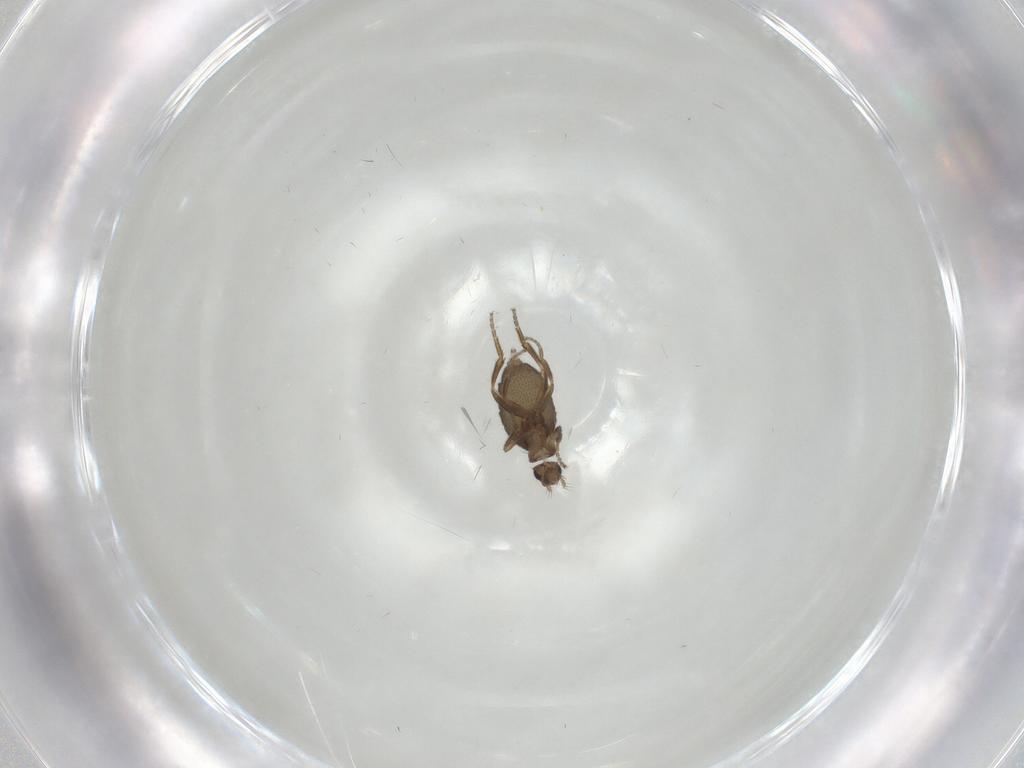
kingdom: Animalia
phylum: Arthropoda
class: Insecta
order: Diptera
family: Phoridae
